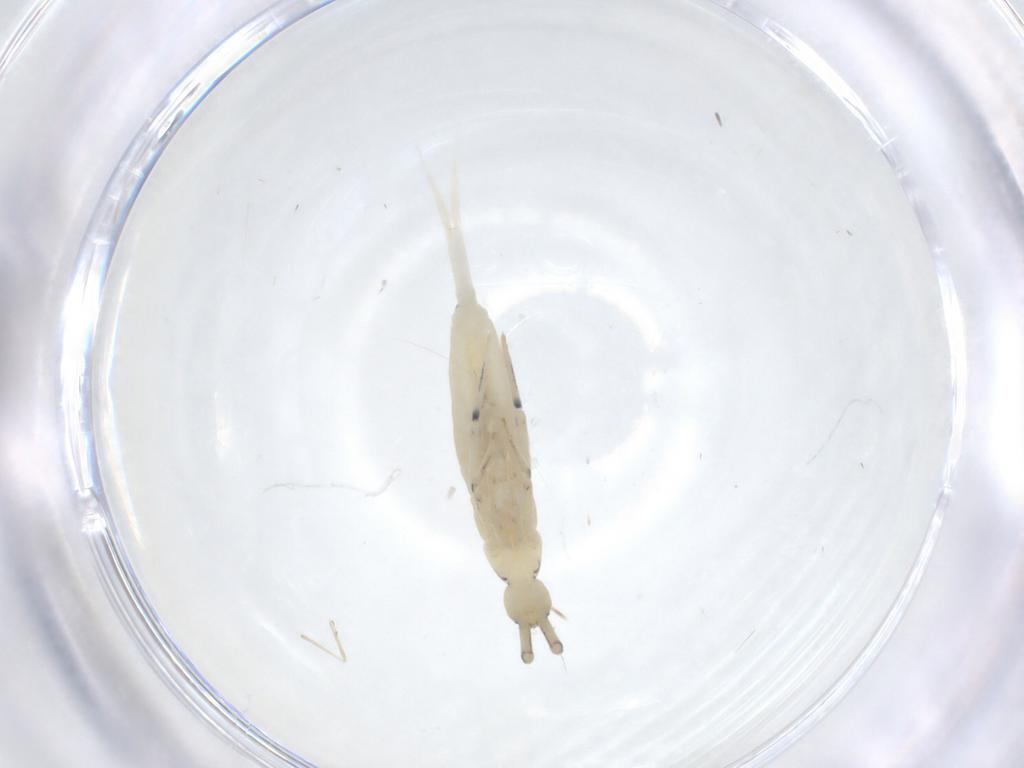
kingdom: Animalia
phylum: Arthropoda
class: Collembola
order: Entomobryomorpha
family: Entomobryidae
